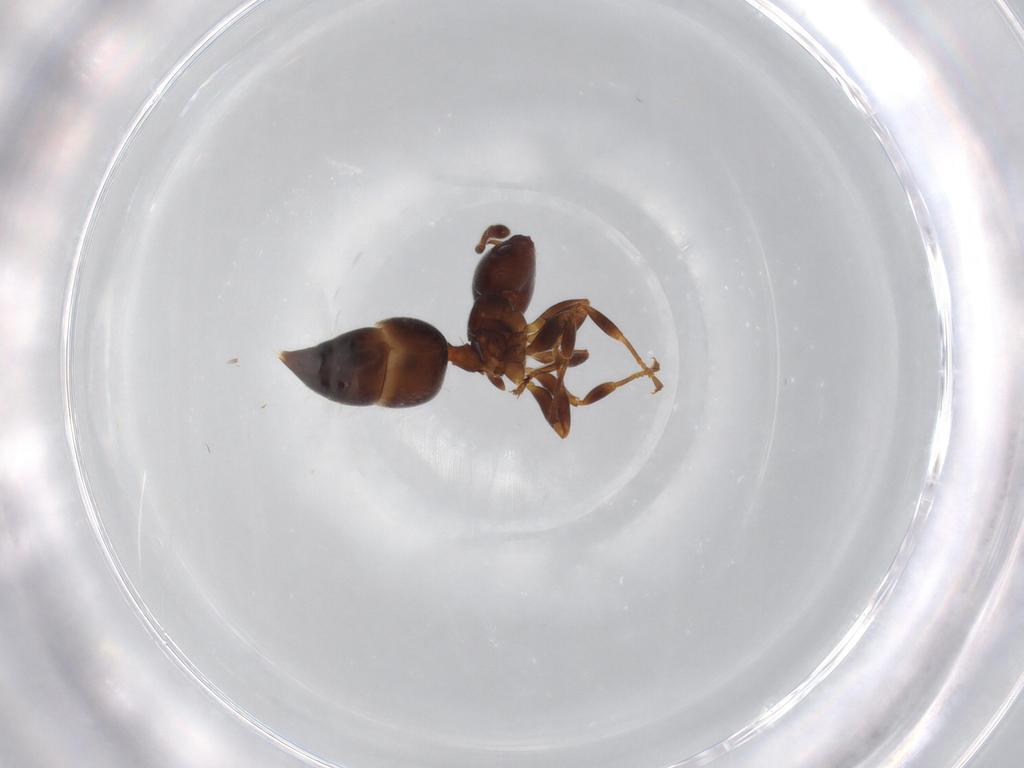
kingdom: Animalia
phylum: Arthropoda
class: Insecta
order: Hymenoptera
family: Formicidae
